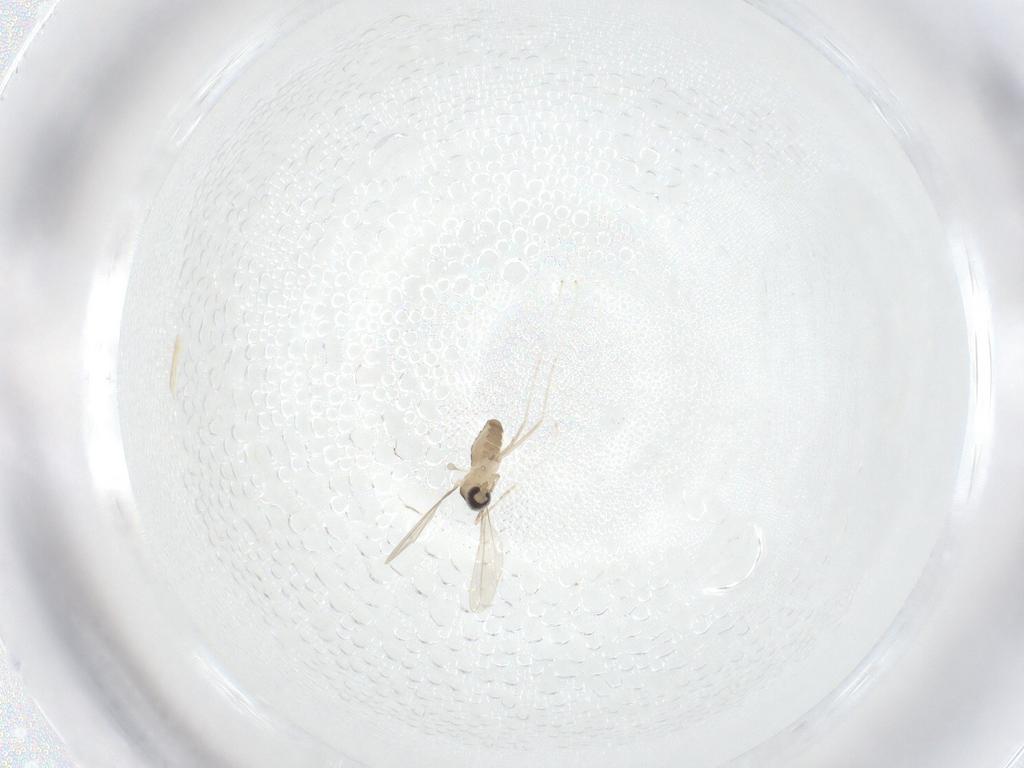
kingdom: Animalia
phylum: Arthropoda
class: Insecta
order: Diptera
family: Cecidomyiidae
